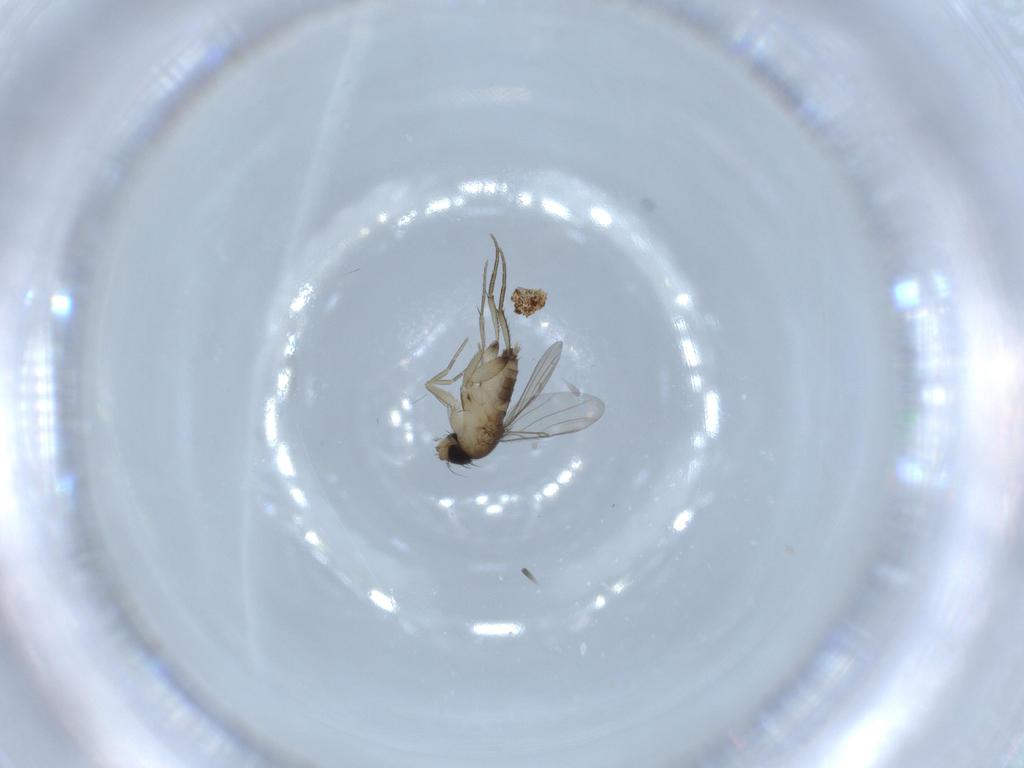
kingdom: Animalia
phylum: Arthropoda
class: Insecta
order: Diptera
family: Phoridae
